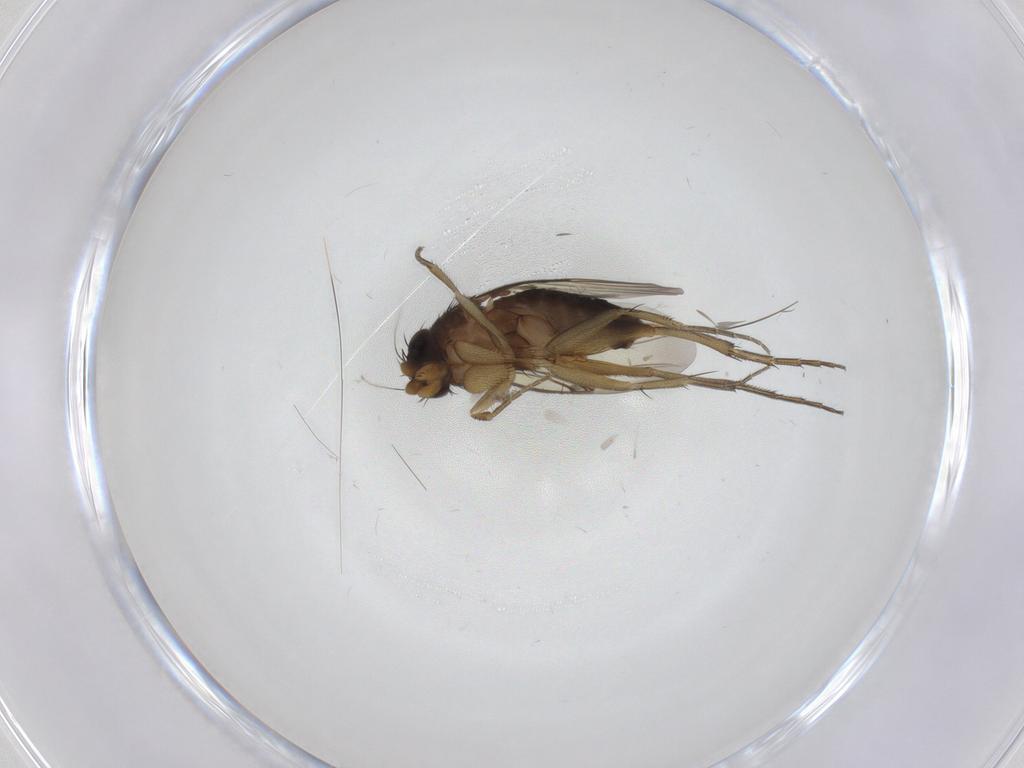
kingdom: Animalia
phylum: Arthropoda
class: Insecta
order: Diptera
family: Phoridae
